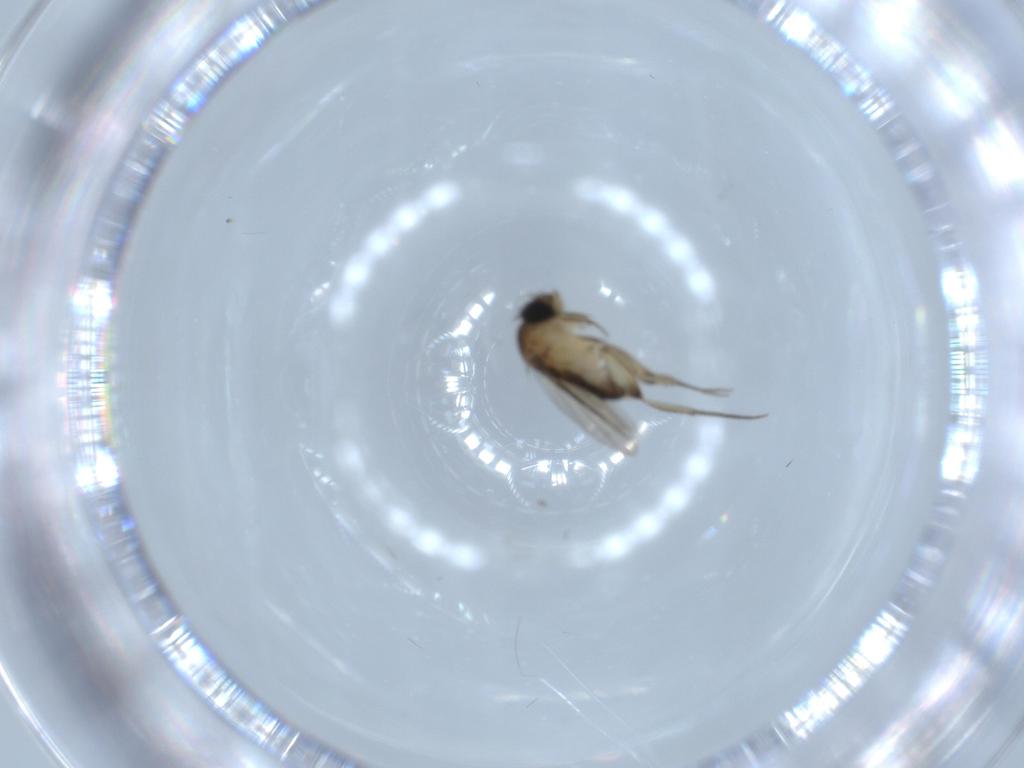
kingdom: Animalia
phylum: Arthropoda
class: Insecta
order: Diptera
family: Phoridae
